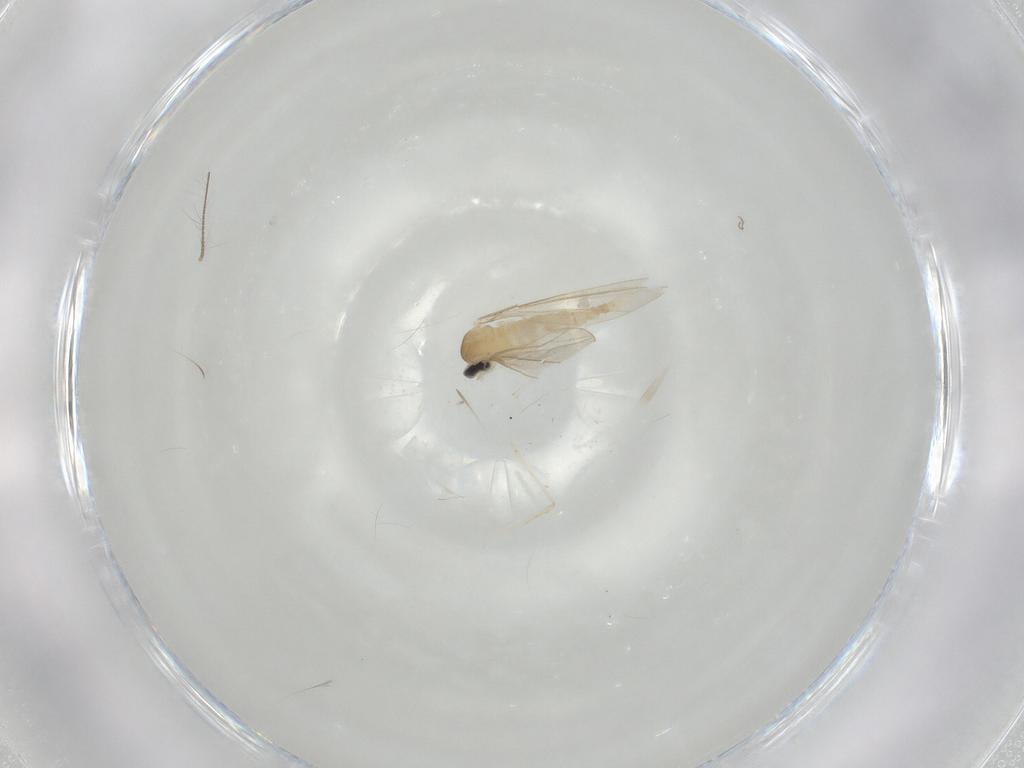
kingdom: Animalia
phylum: Arthropoda
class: Insecta
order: Diptera
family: Cecidomyiidae
